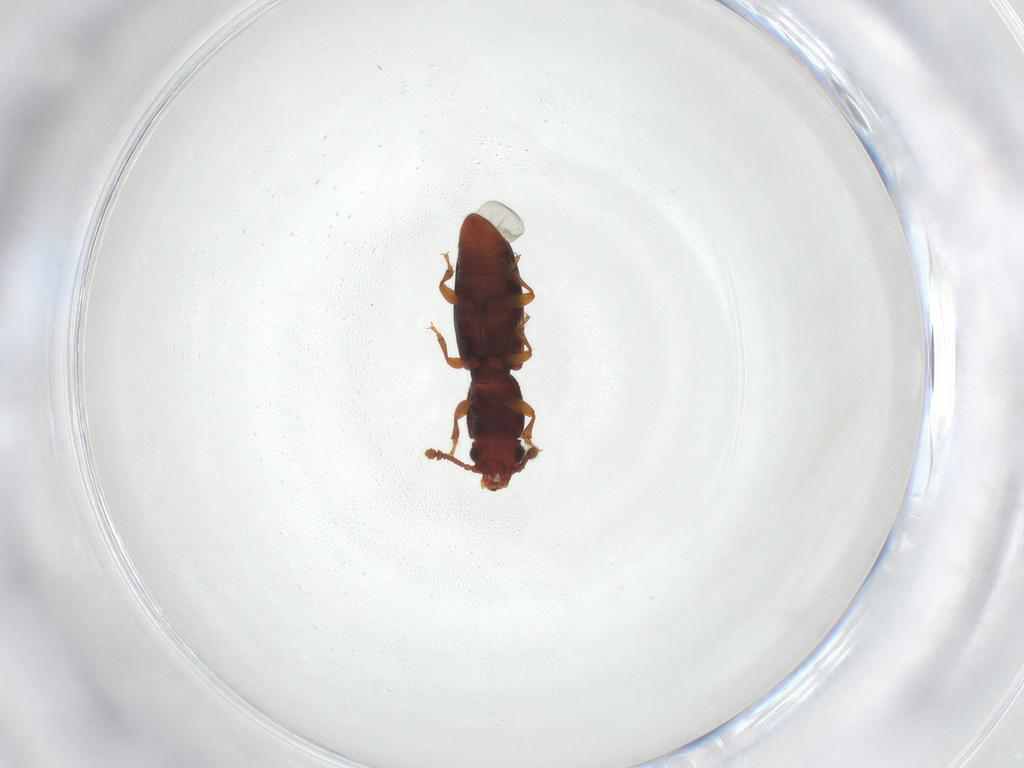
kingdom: Animalia
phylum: Arthropoda
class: Insecta
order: Coleoptera
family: Monotomidae
